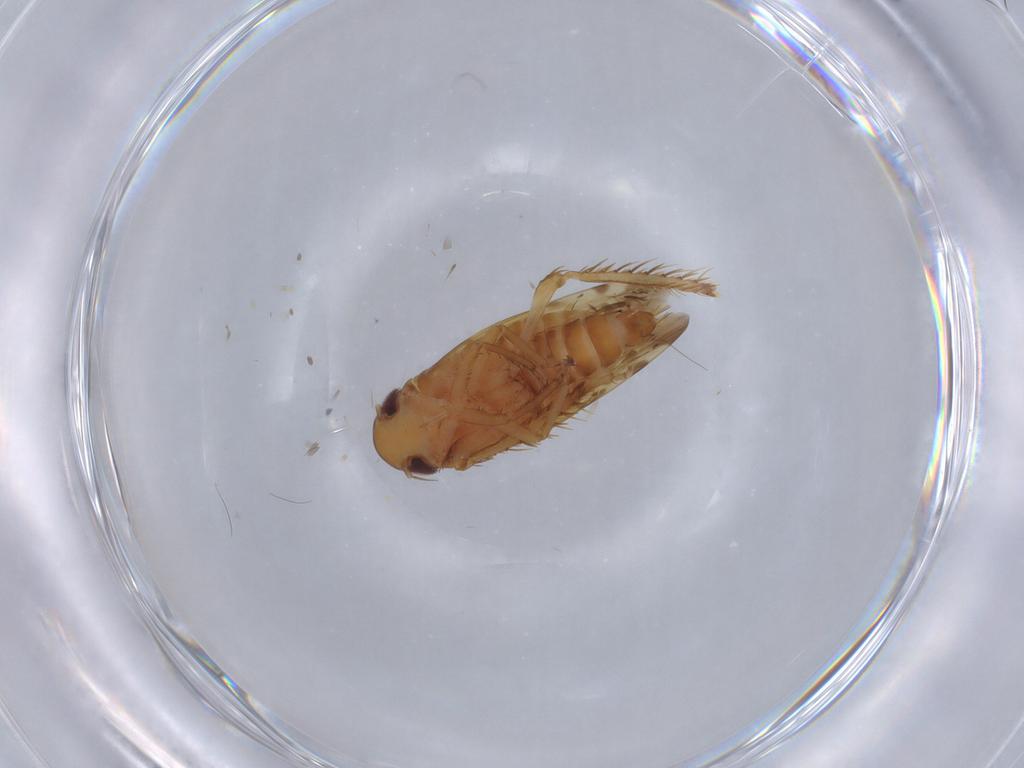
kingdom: Animalia
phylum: Arthropoda
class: Insecta
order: Hemiptera
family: Cicadellidae
